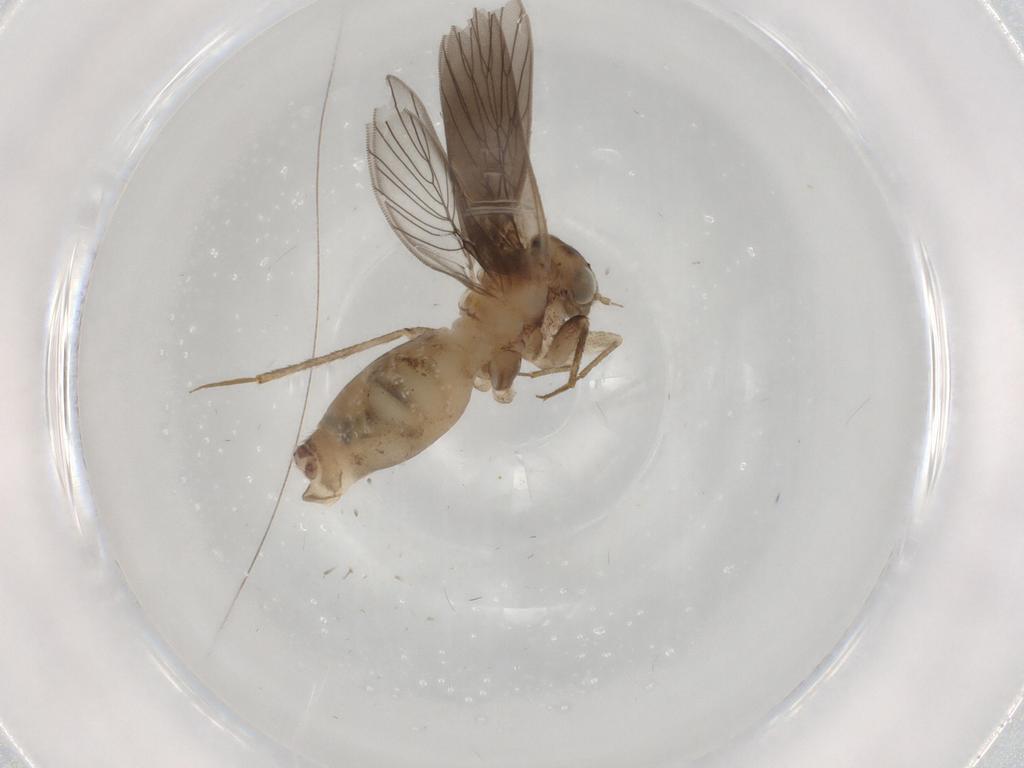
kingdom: Animalia
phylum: Arthropoda
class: Insecta
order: Psocodea
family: Lepidopsocidae
